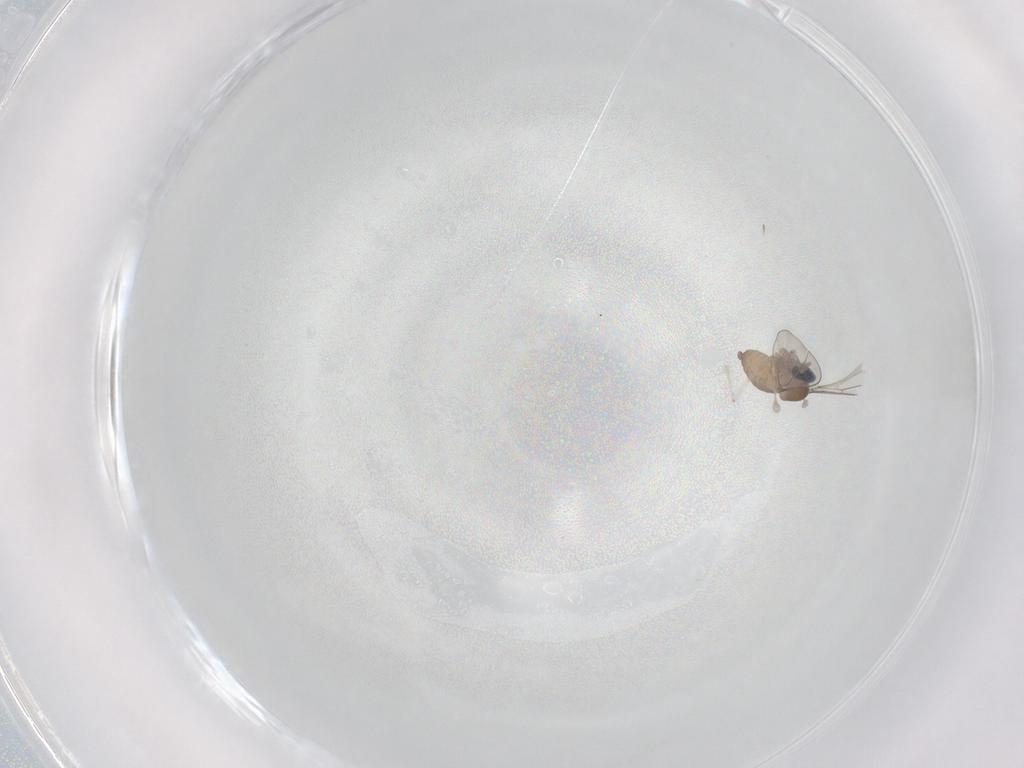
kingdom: Animalia
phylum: Arthropoda
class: Insecta
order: Diptera
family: Cecidomyiidae
